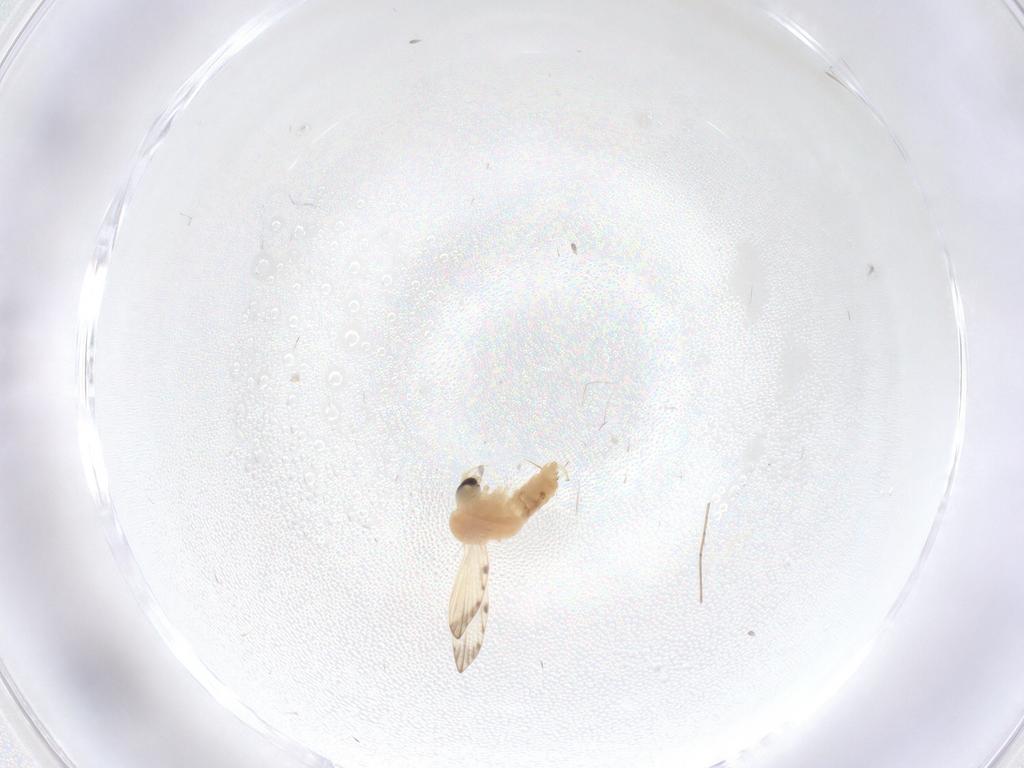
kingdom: Animalia
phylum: Arthropoda
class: Insecta
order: Diptera
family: Psychodidae
